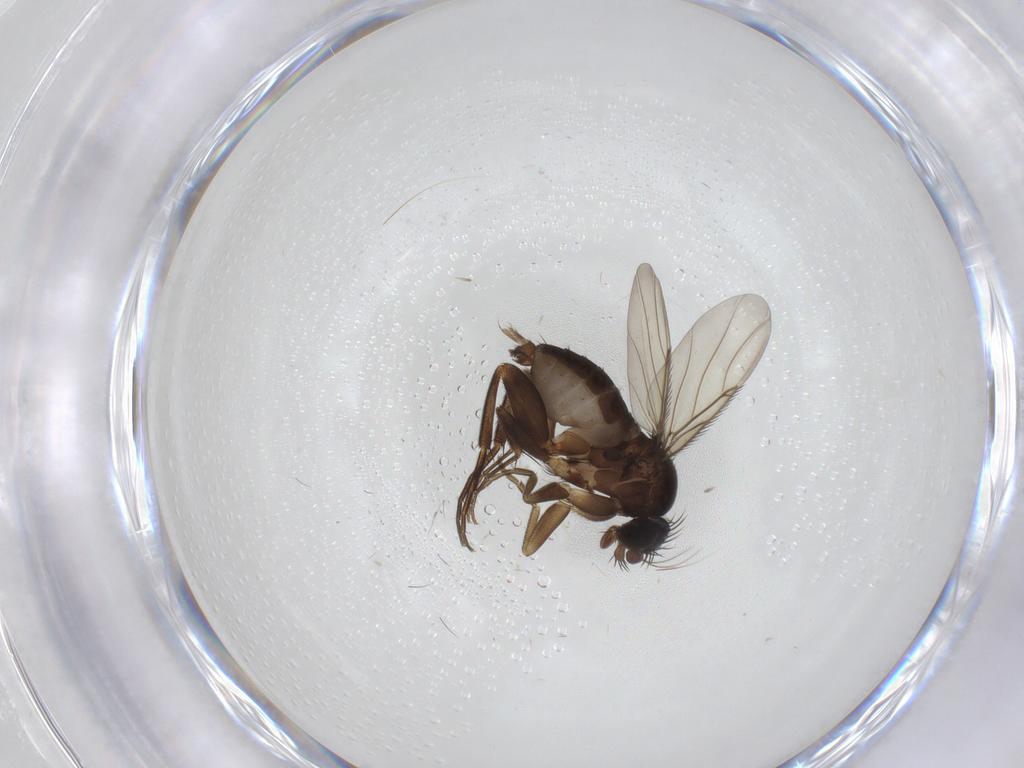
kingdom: Animalia
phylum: Arthropoda
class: Insecta
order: Diptera
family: Phoridae
